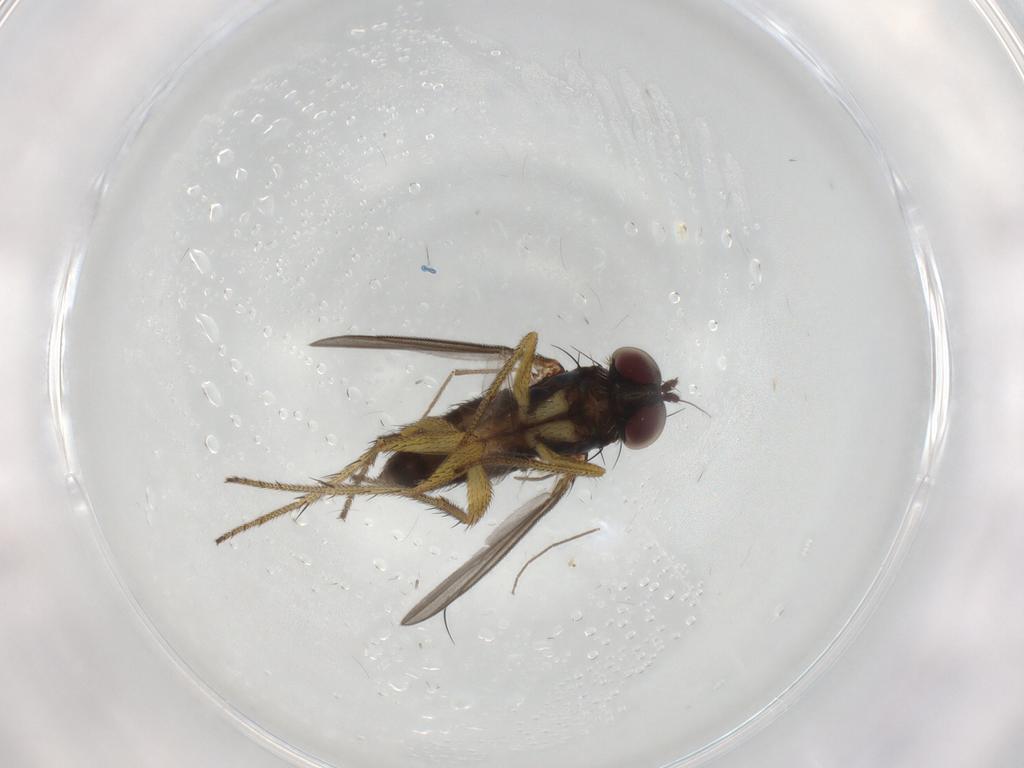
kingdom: Animalia
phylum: Arthropoda
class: Insecta
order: Diptera
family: Chironomidae
